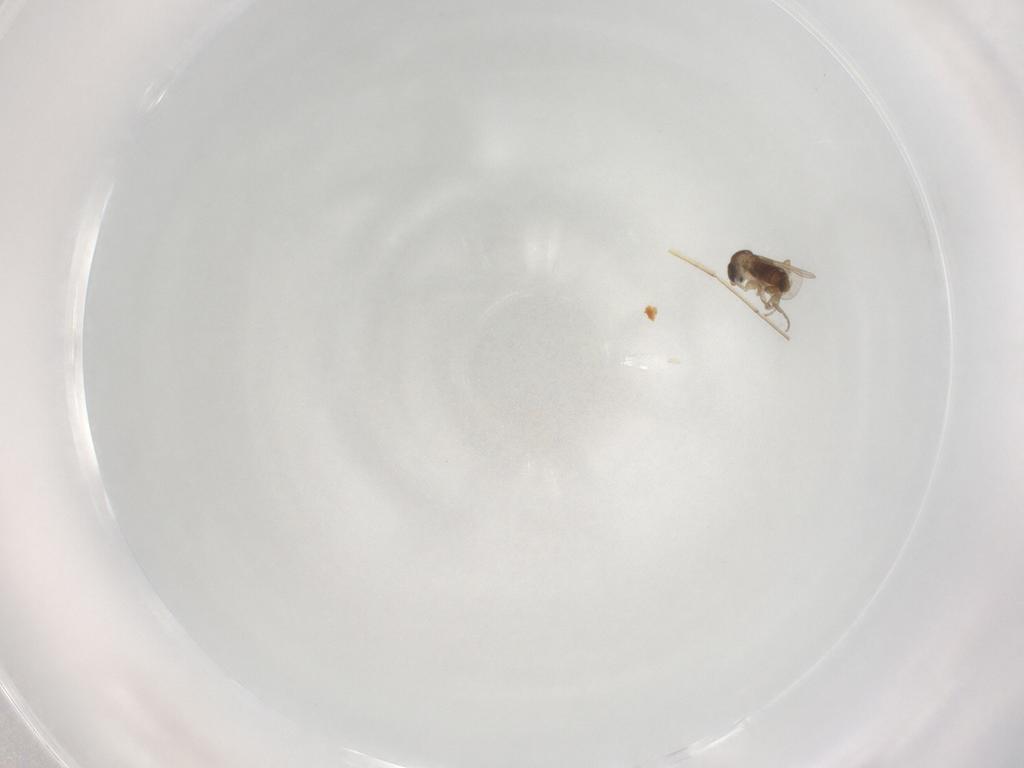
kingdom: Animalia
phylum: Arthropoda
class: Insecta
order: Diptera
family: Phoridae
